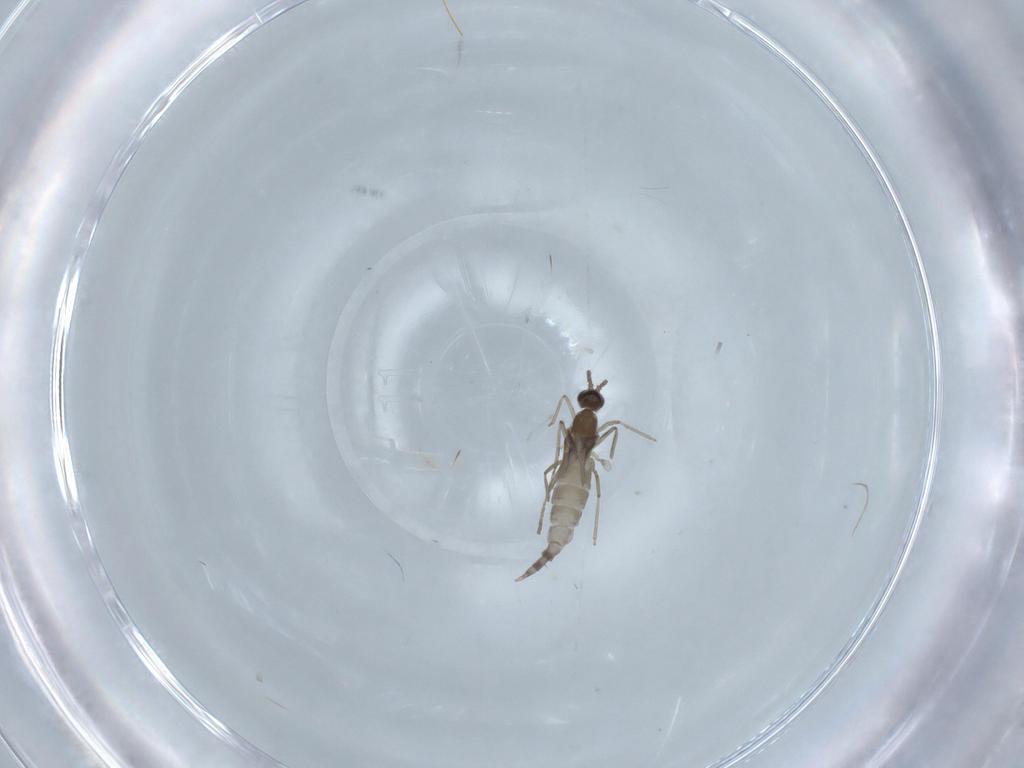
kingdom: Animalia
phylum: Arthropoda
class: Insecta
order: Diptera
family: Cecidomyiidae
